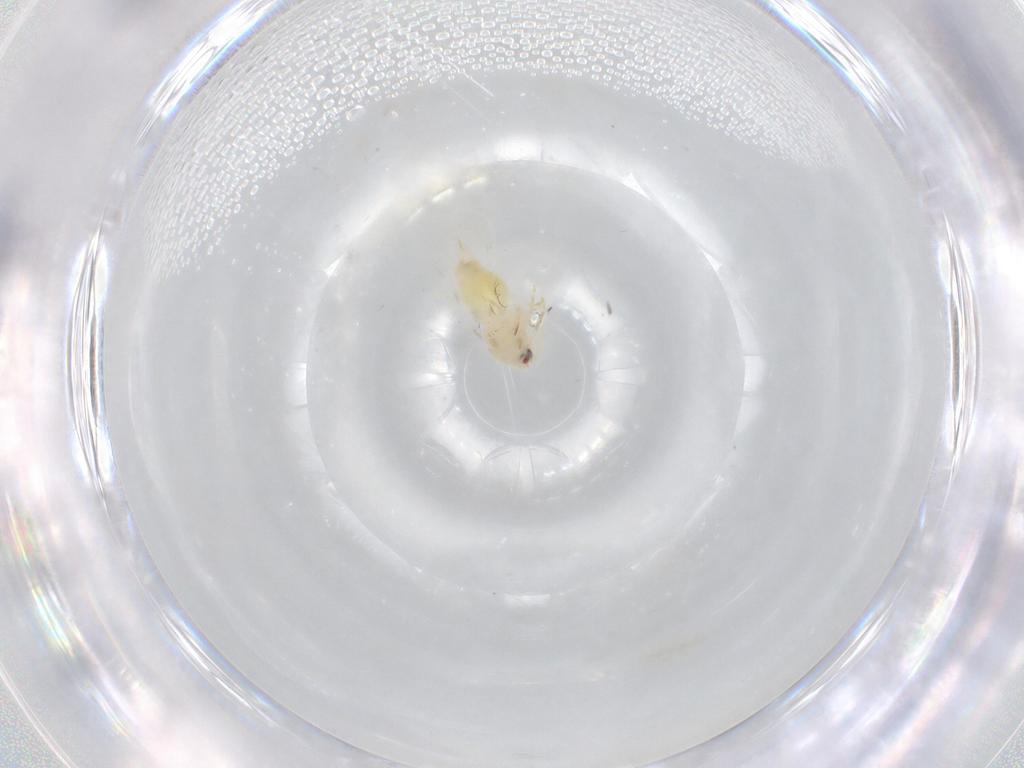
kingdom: Animalia
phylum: Arthropoda
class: Insecta
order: Hemiptera
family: Aleyrodidae
